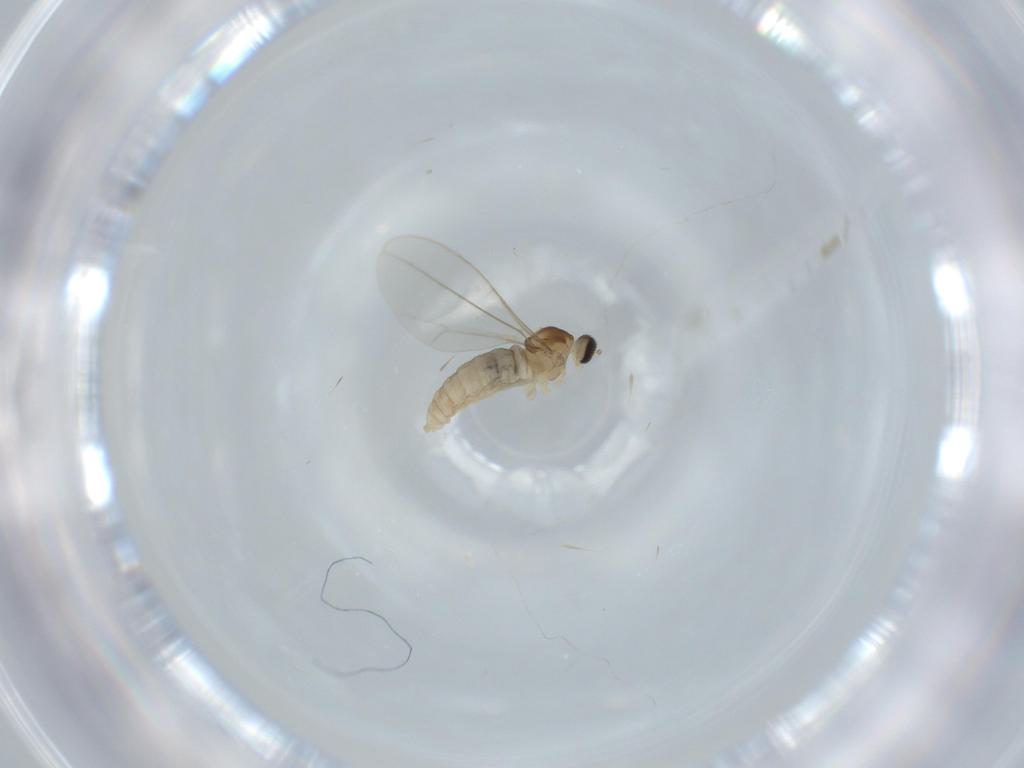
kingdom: Animalia
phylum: Arthropoda
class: Insecta
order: Diptera
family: Cecidomyiidae
